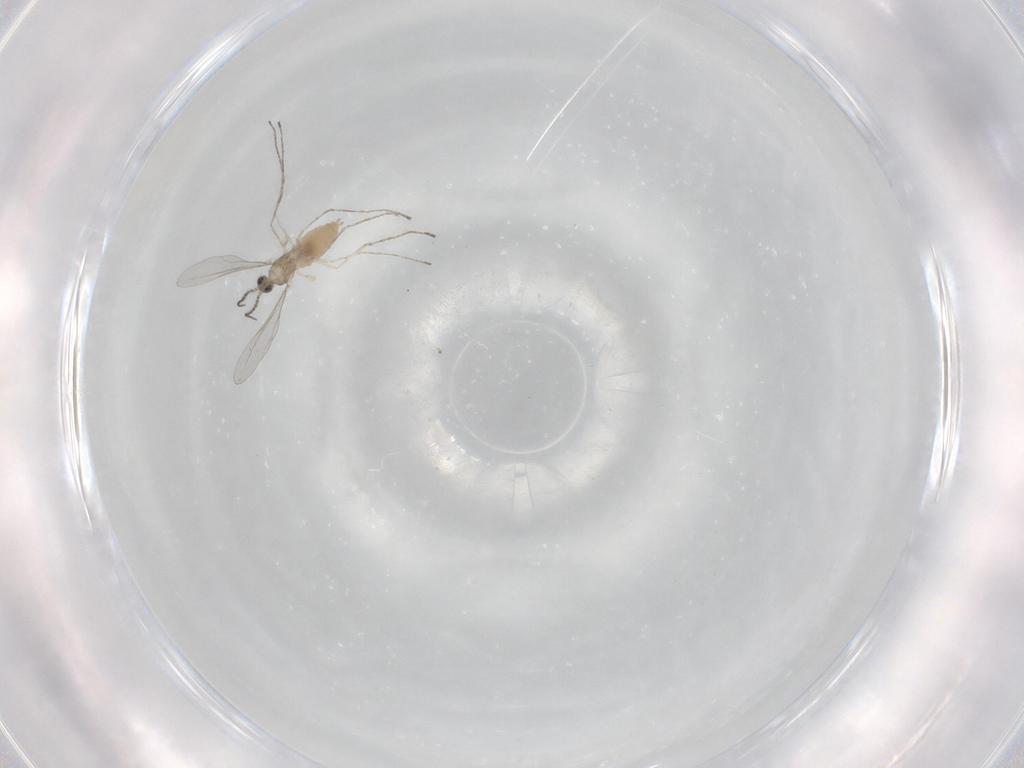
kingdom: Animalia
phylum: Arthropoda
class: Insecta
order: Diptera
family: Cecidomyiidae
